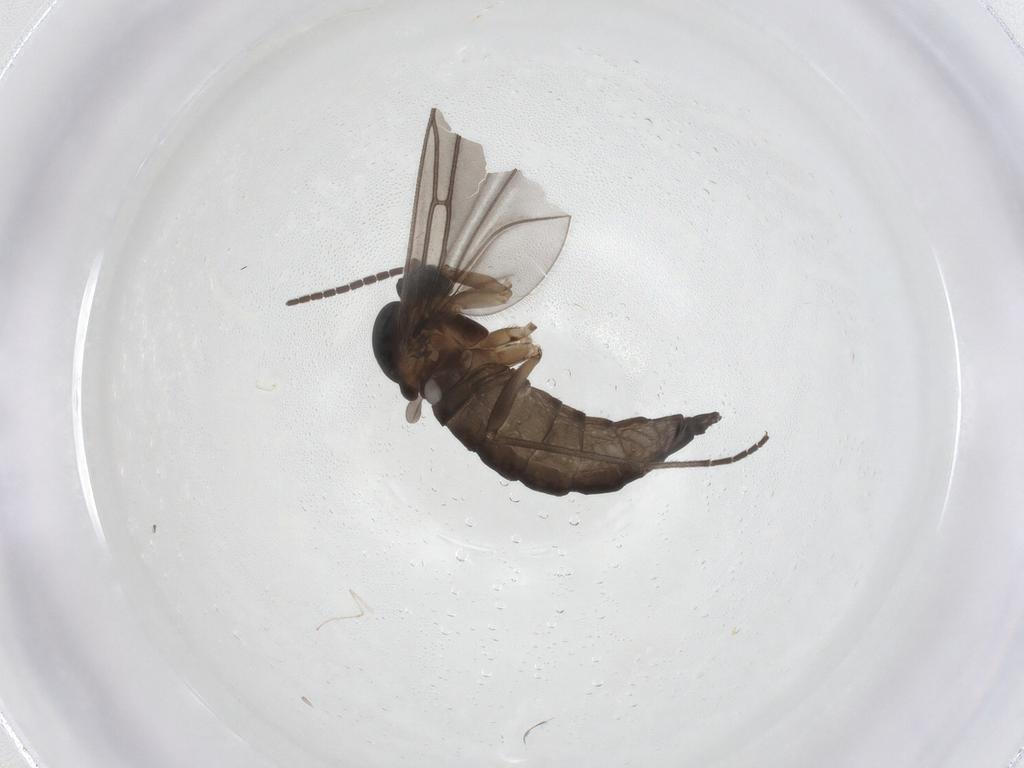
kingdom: Animalia
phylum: Arthropoda
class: Insecta
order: Diptera
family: Sciaridae
